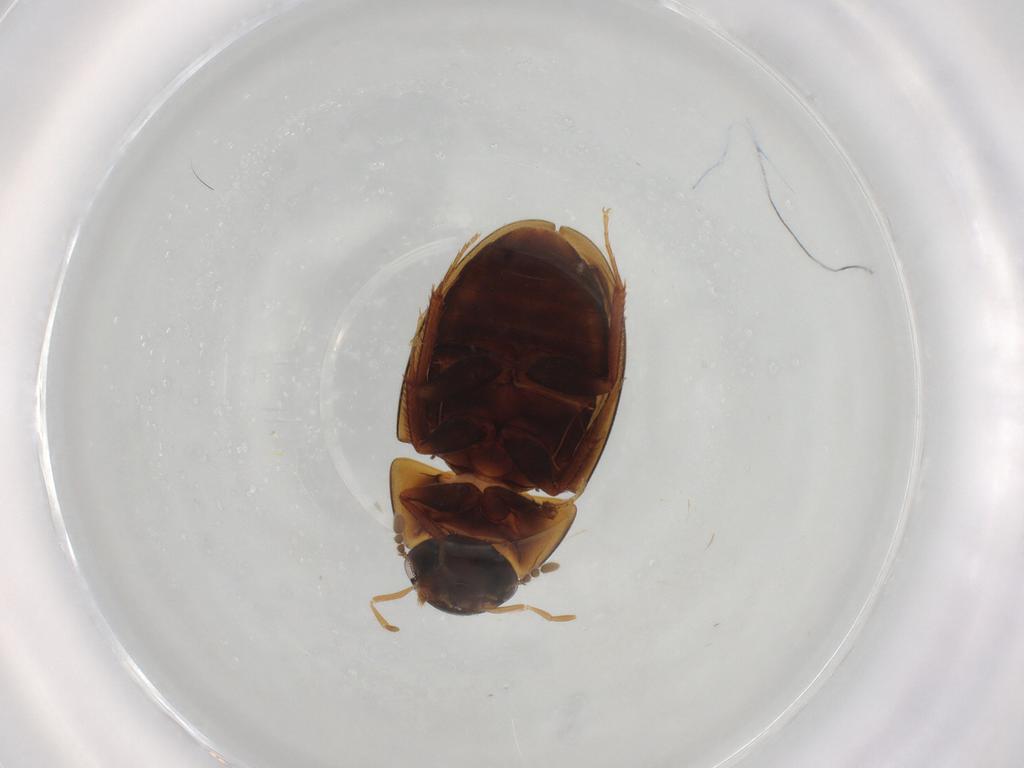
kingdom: Animalia
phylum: Arthropoda
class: Insecta
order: Coleoptera
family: Hydrophilidae
